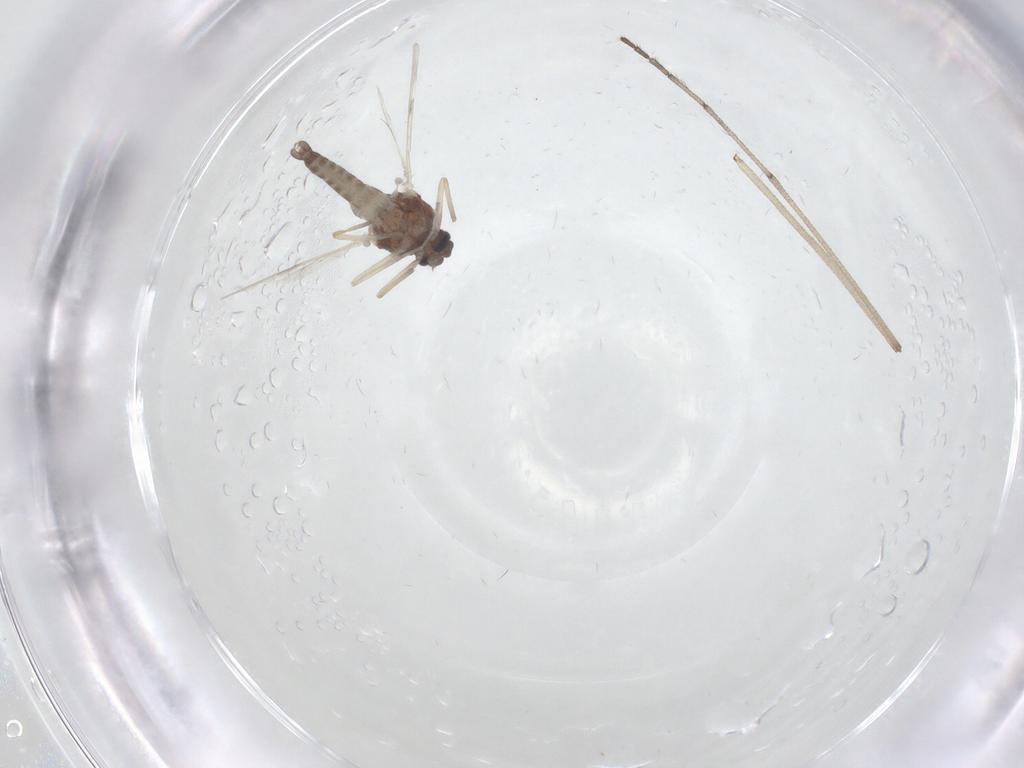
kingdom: Animalia
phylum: Arthropoda
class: Insecta
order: Diptera
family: Ceratopogonidae
